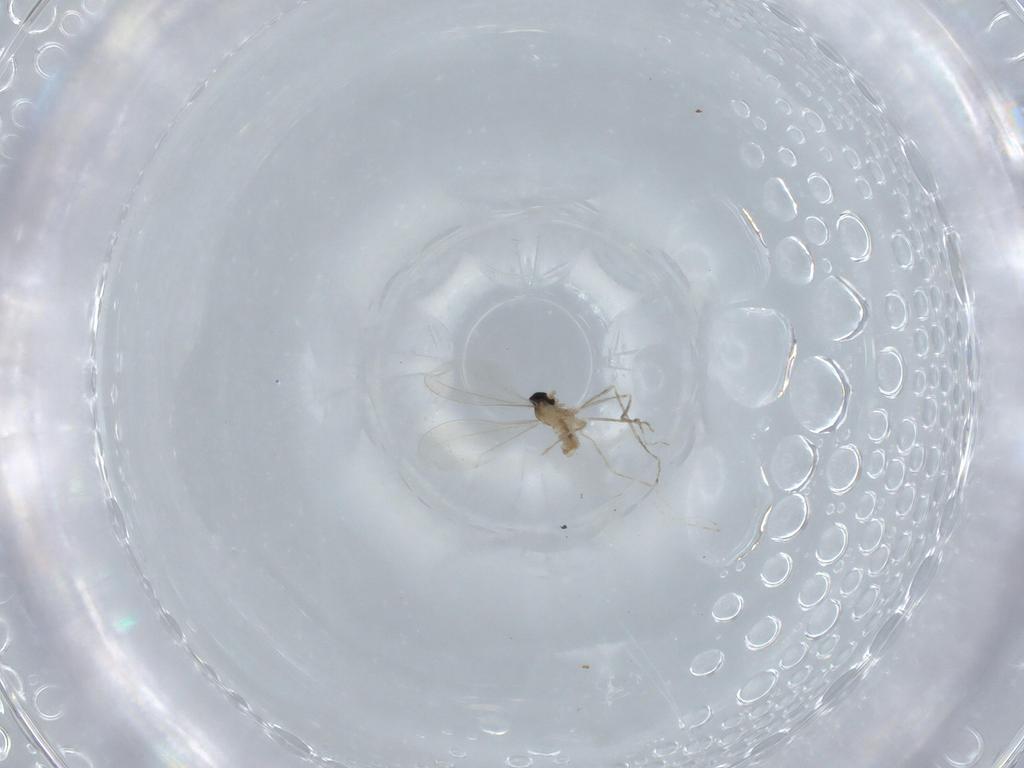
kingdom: Animalia
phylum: Arthropoda
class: Insecta
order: Diptera
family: Cecidomyiidae
